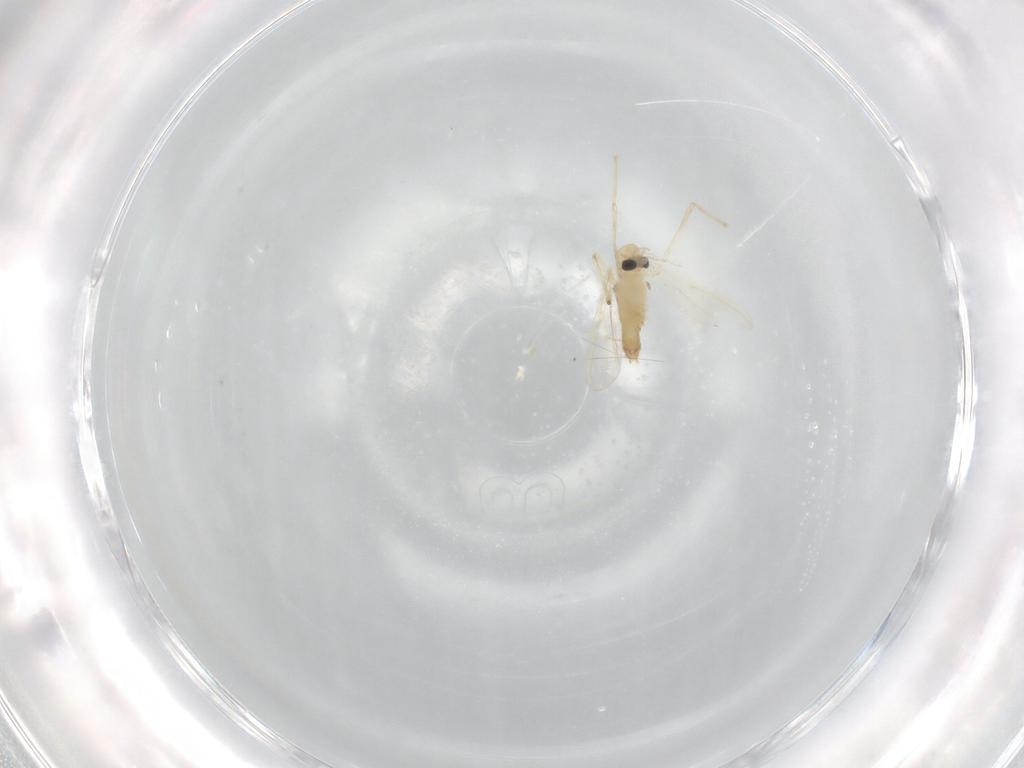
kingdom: Animalia
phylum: Arthropoda
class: Insecta
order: Diptera
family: Chironomidae
